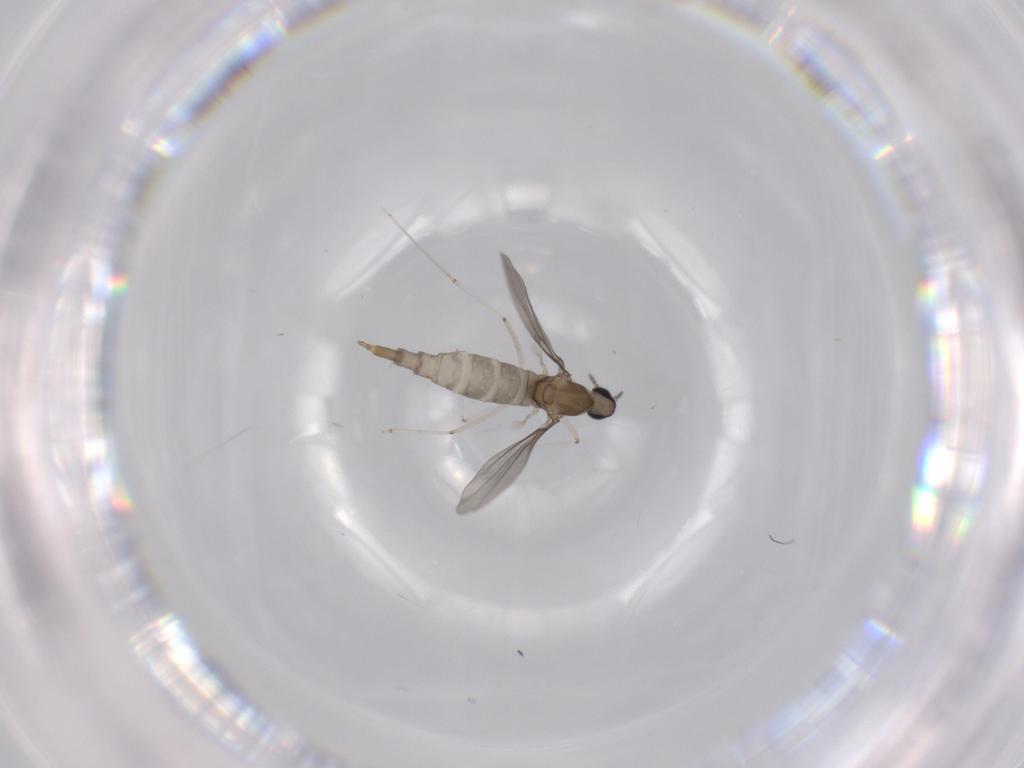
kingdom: Animalia
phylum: Arthropoda
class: Insecta
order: Diptera
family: Cecidomyiidae
